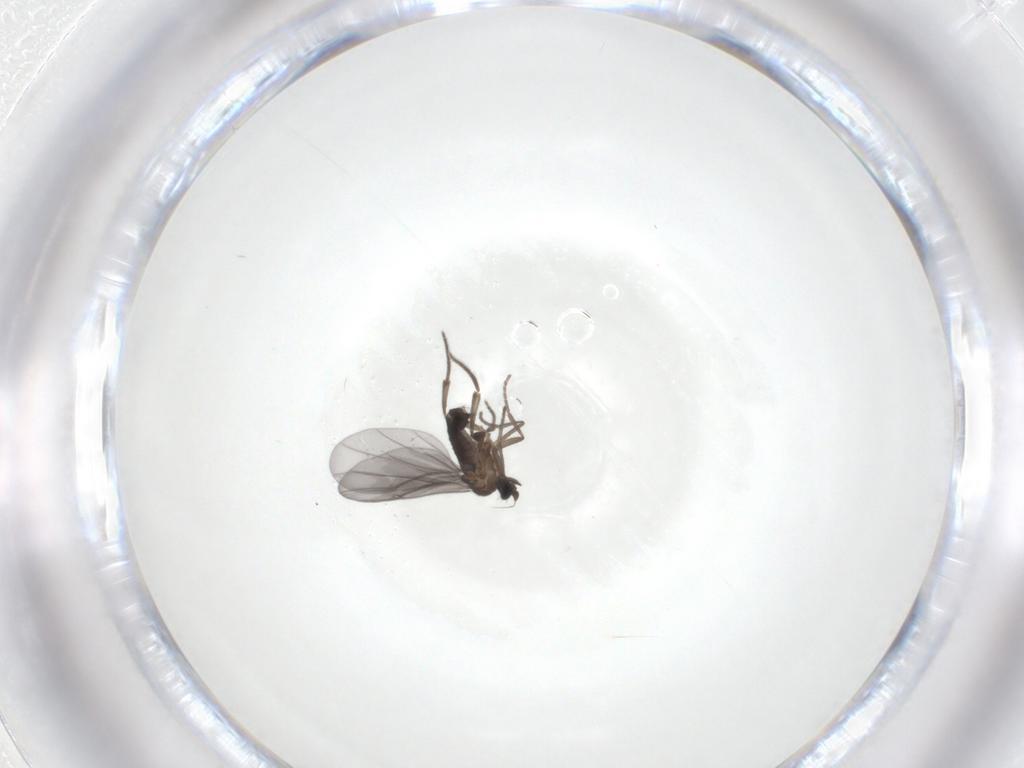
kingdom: Animalia
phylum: Arthropoda
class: Insecta
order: Diptera
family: Phoridae
